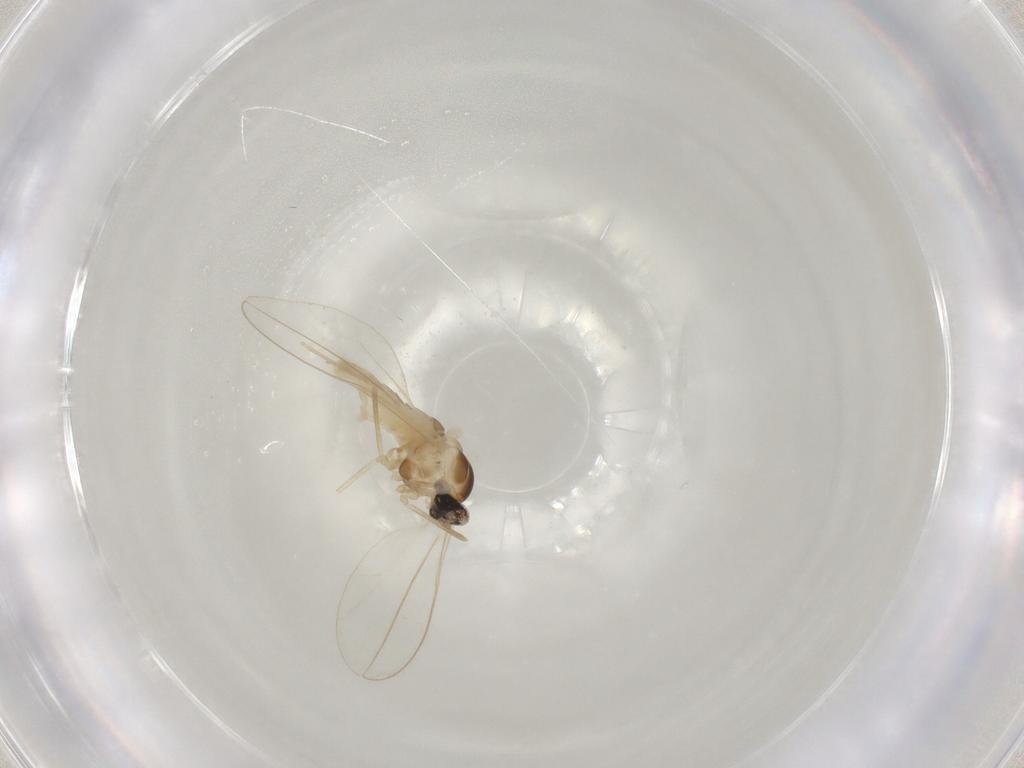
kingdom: Animalia
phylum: Arthropoda
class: Insecta
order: Diptera
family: Cecidomyiidae
